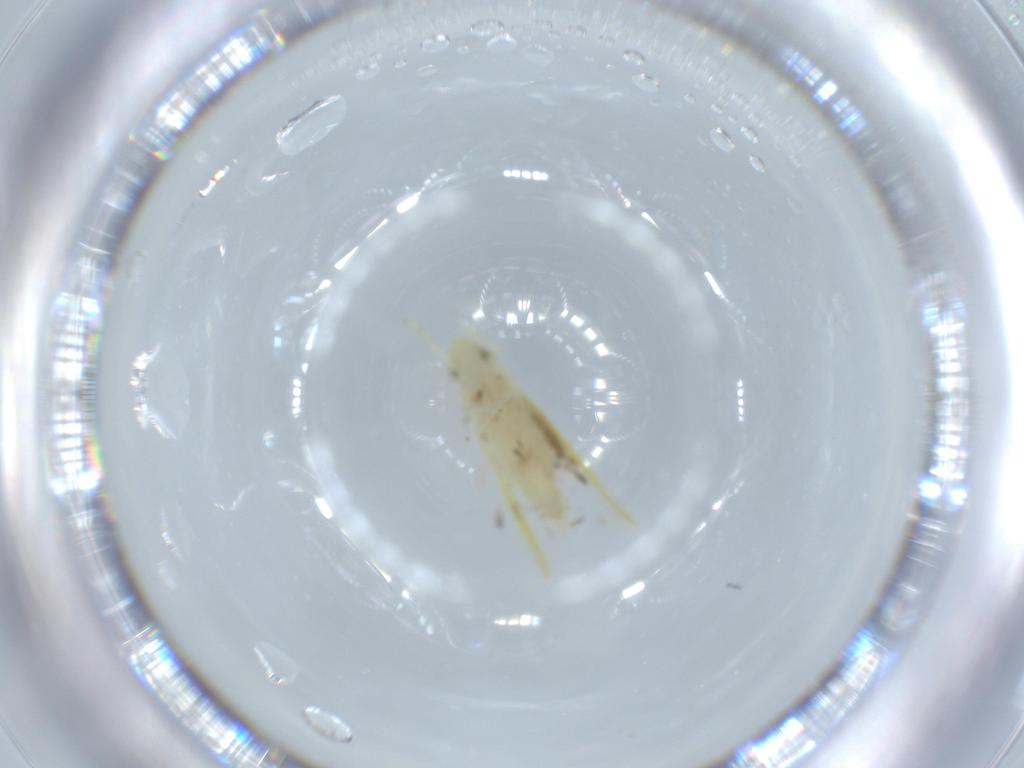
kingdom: Animalia
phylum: Arthropoda
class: Insecta
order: Hemiptera
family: Cicadellidae
